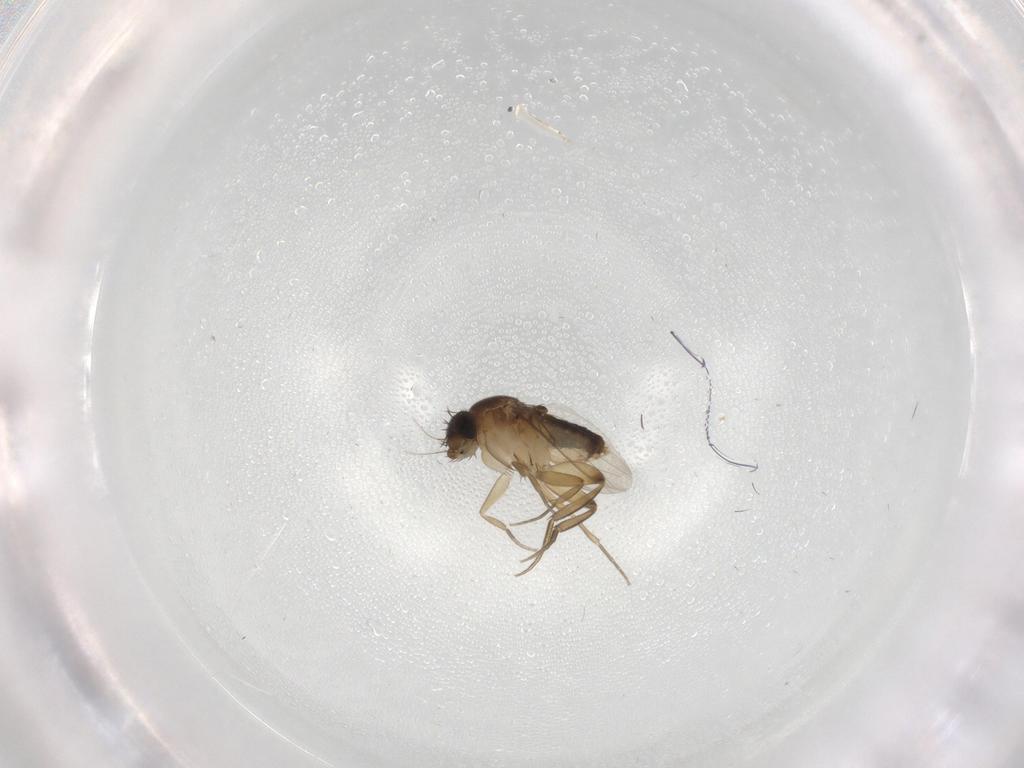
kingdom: Animalia
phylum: Arthropoda
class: Insecta
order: Diptera
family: Phoridae
